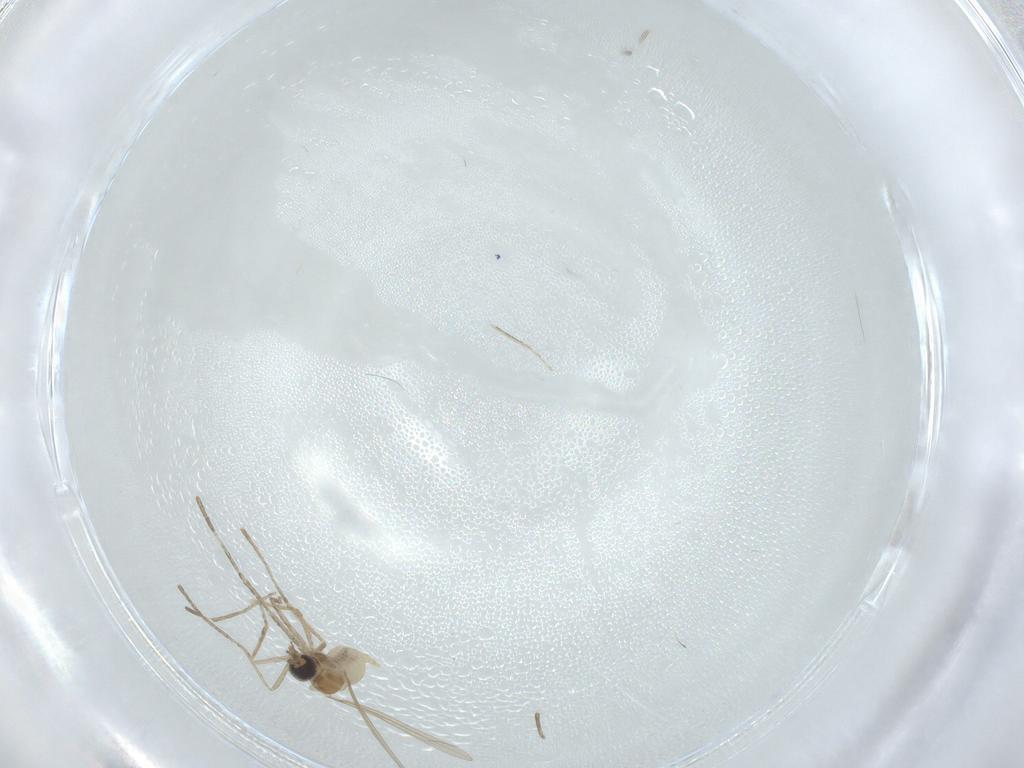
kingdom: Animalia
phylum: Arthropoda
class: Insecta
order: Diptera
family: Cecidomyiidae
